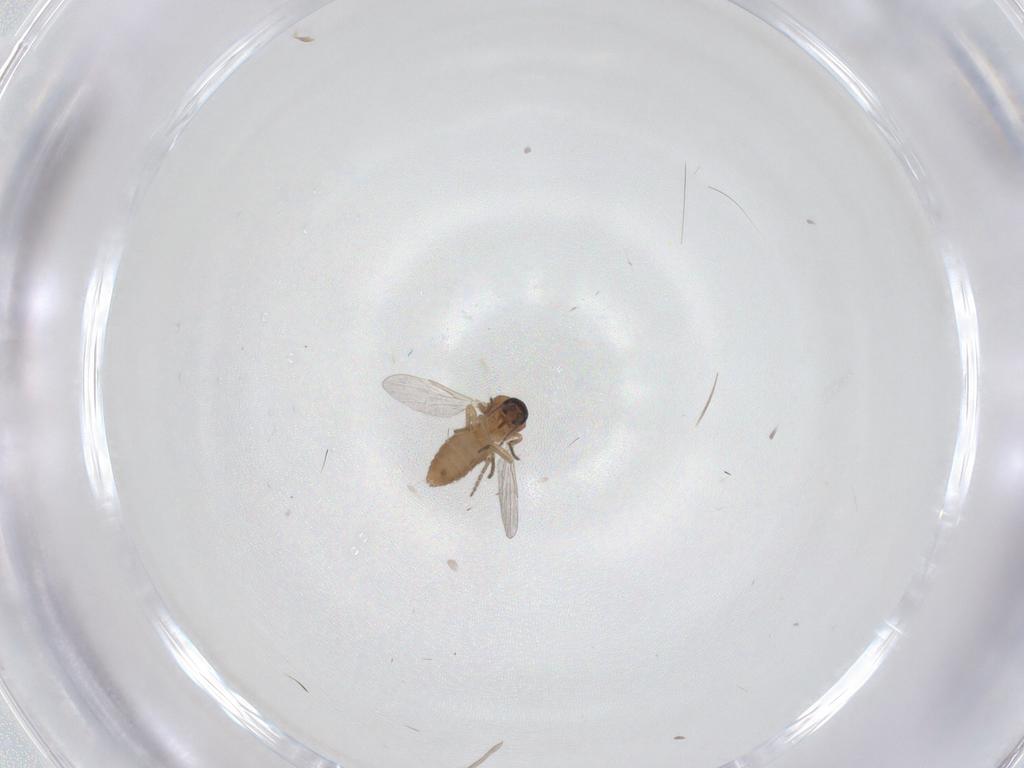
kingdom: Animalia
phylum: Arthropoda
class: Insecta
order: Diptera
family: Ceratopogonidae
